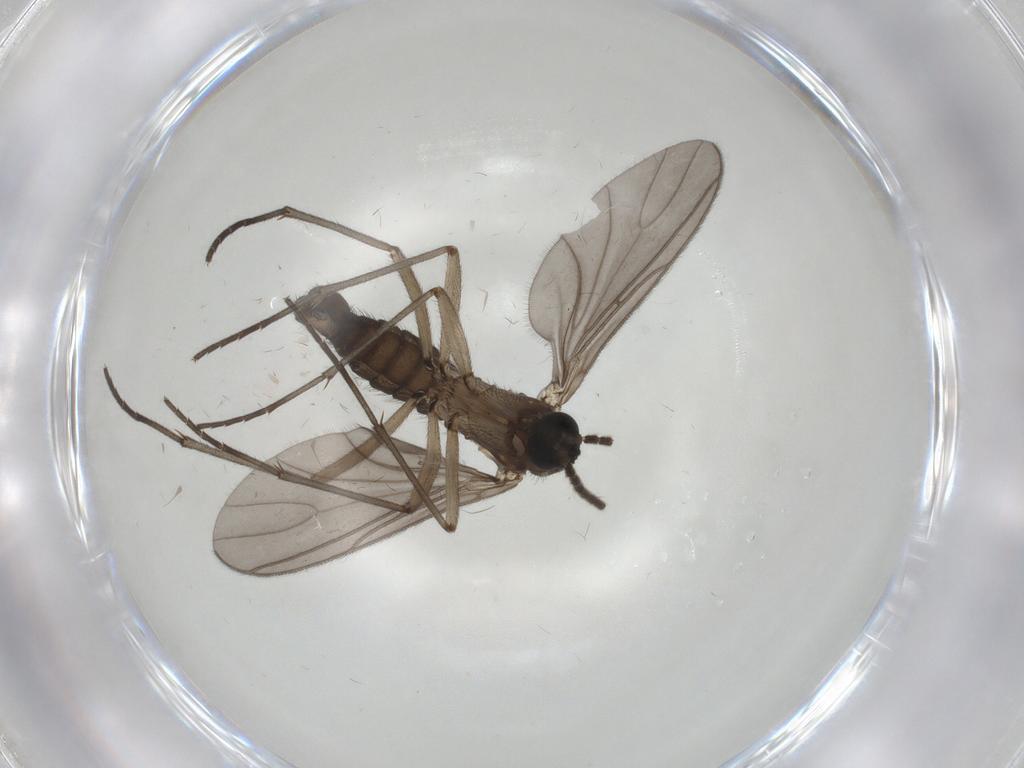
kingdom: Animalia
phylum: Arthropoda
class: Insecta
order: Diptera
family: Sciaridae
